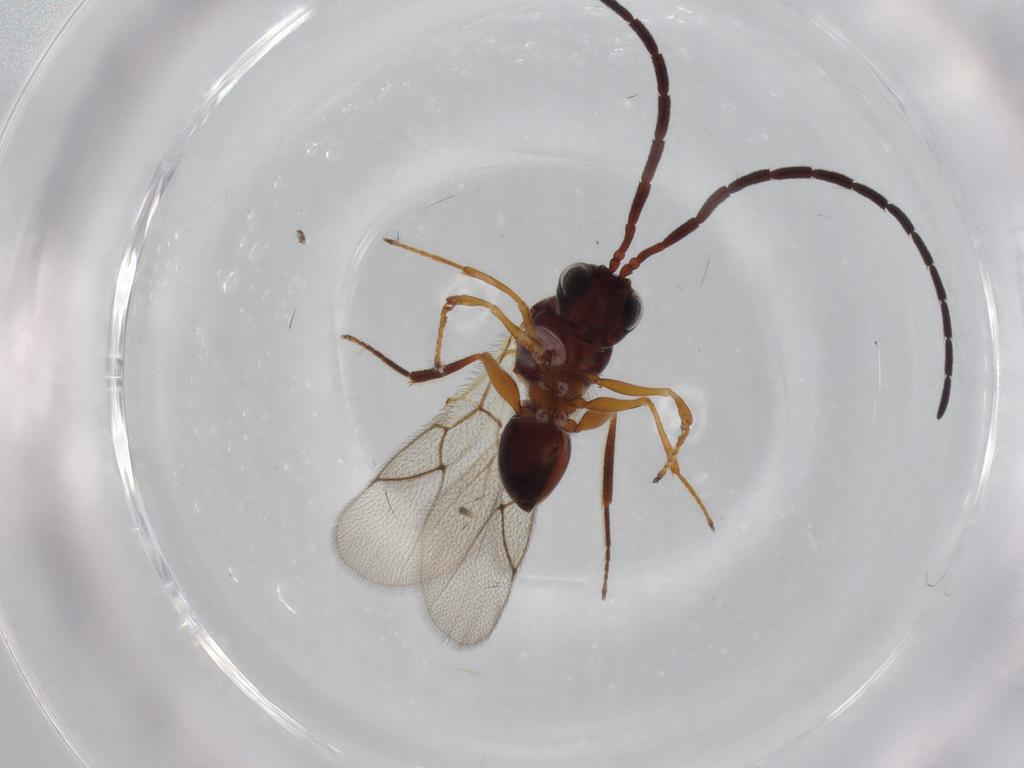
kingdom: Animalia
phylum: Arthropoda
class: Insecta
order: Hymenoptera
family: Figitidae
